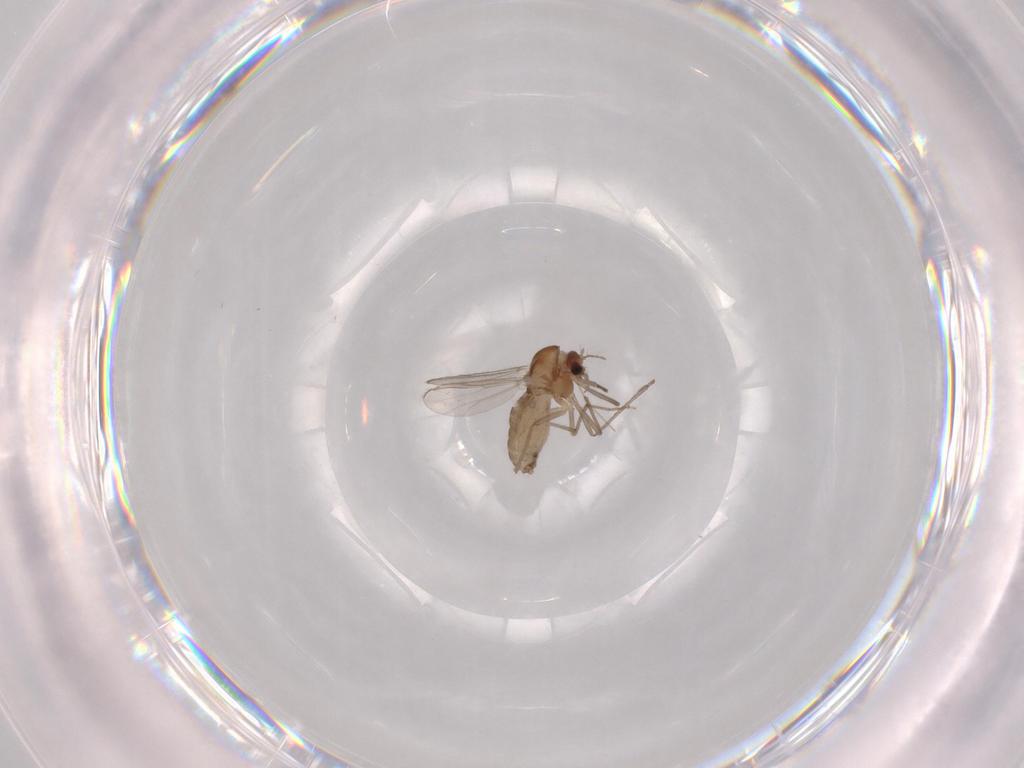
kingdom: Animalia
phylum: Arthropoda
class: Insecta
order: Diptera
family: Chironomidae
